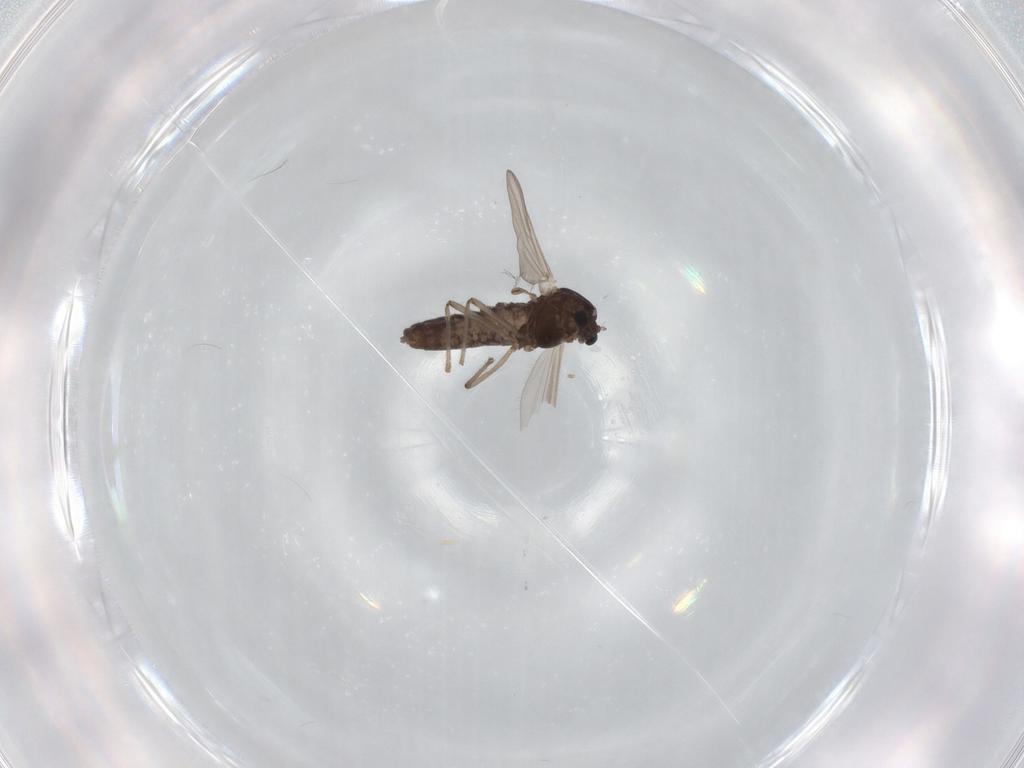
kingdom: Animalia
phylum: Arthropoda
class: Insecta
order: Diptera
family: Chironomidae
